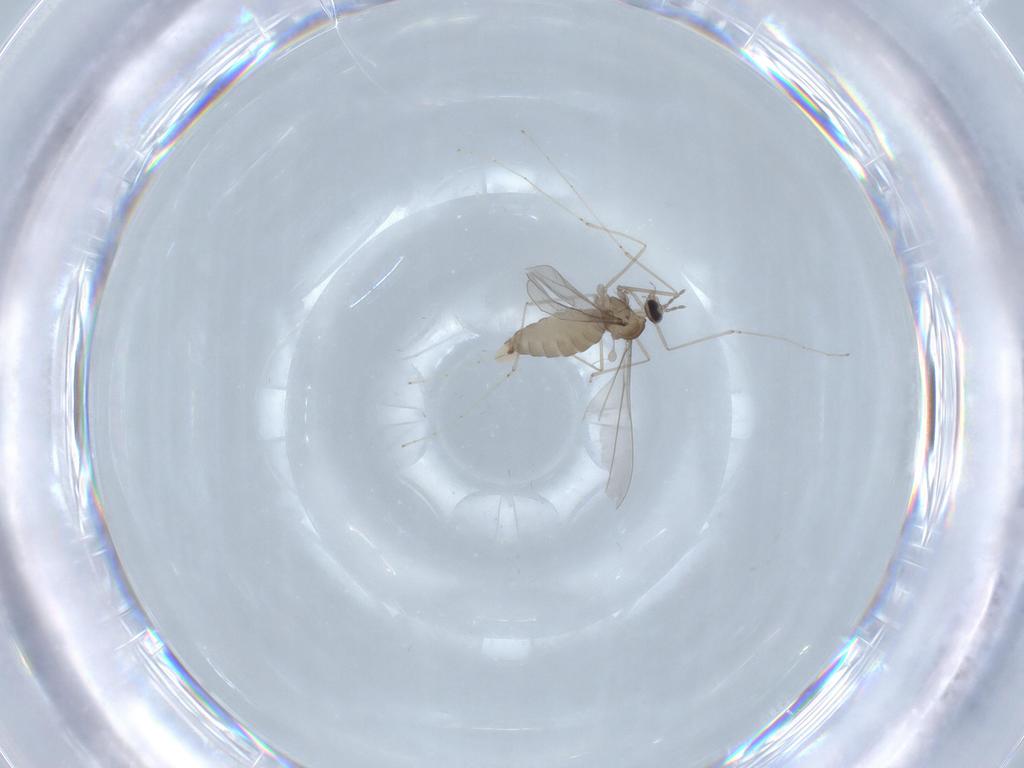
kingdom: Animalia
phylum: Arthropoda
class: Insecta
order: Diptera
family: Cecidomyiidae
